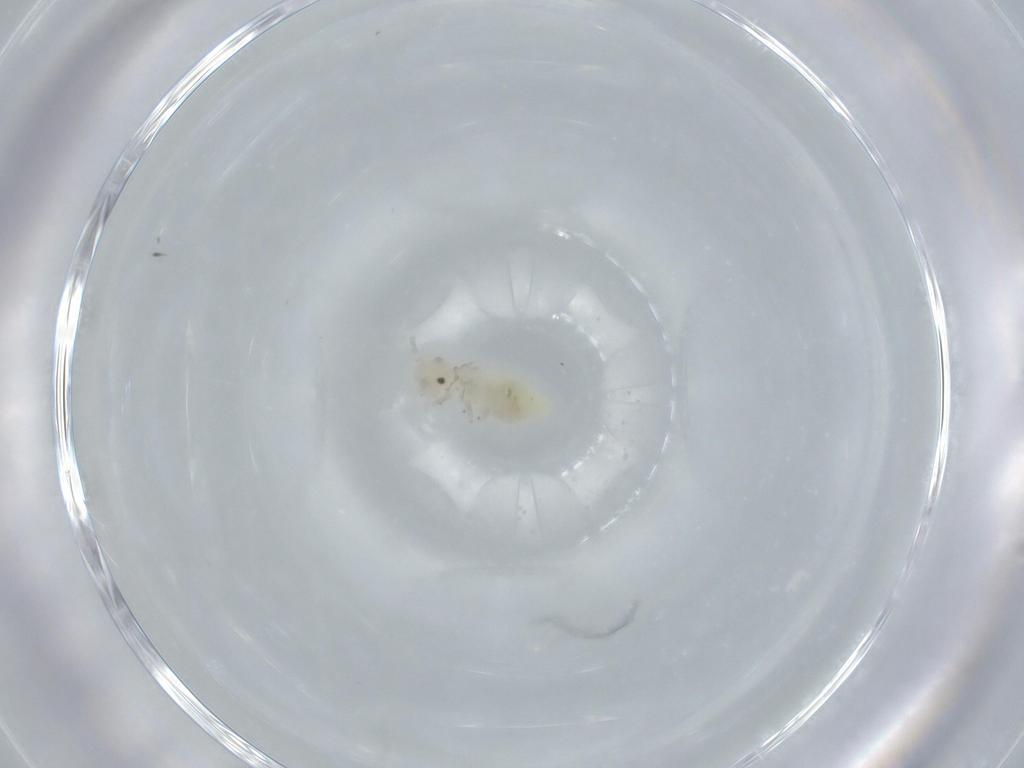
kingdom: Animalia
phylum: Arthropoda
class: Insecta
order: Psocodea
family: Caeciliusidae
